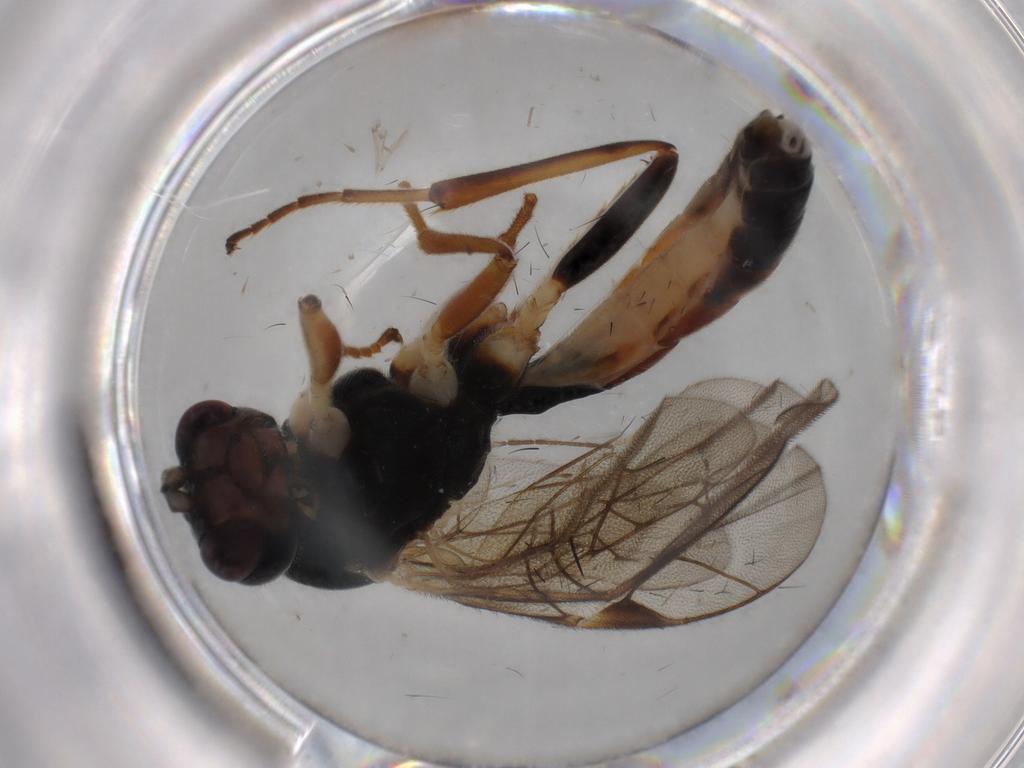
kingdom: Animalia
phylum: Arthropoda
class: Insecta
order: Hymenoptera
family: Ichneumonidae
